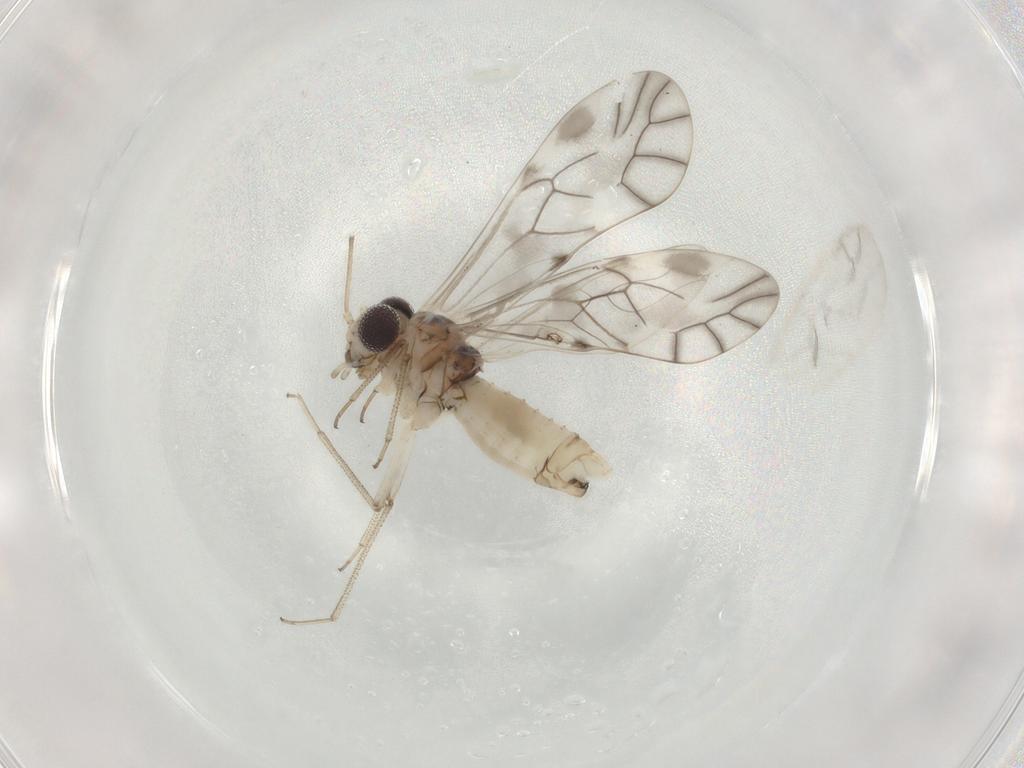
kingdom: Animalia
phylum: Arthropoda
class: Insecta
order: Psocodea
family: Psocidae
